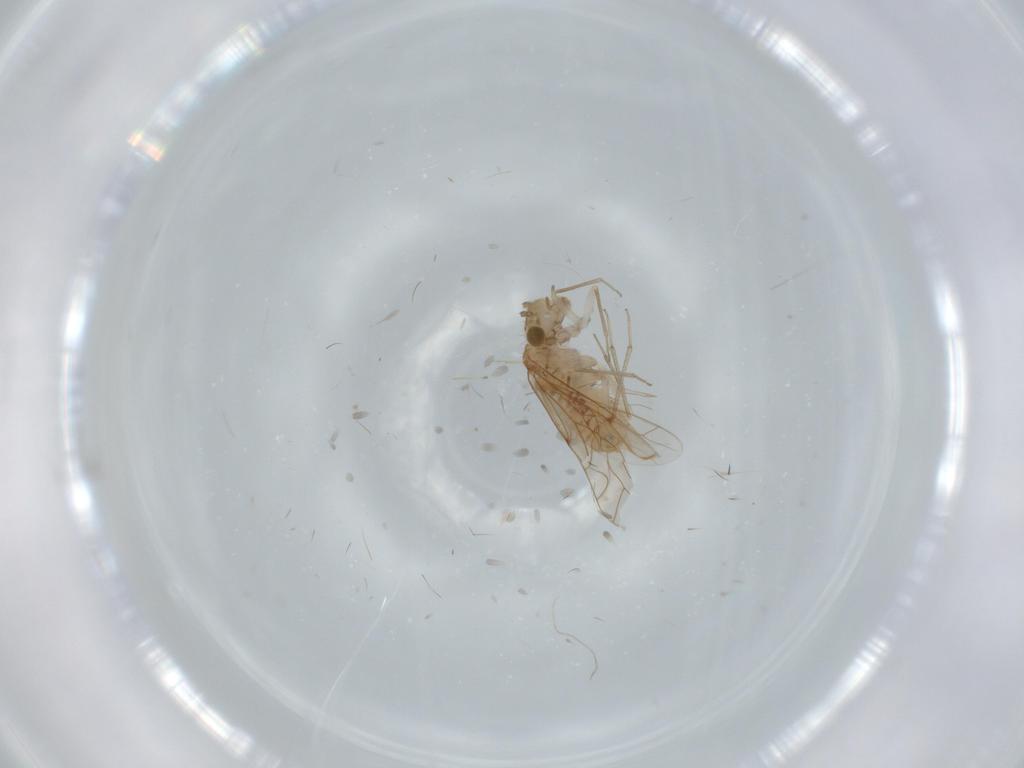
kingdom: Animalia
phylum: Arthropoda
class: Insecta
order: Psocodea
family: Lachesillidae
